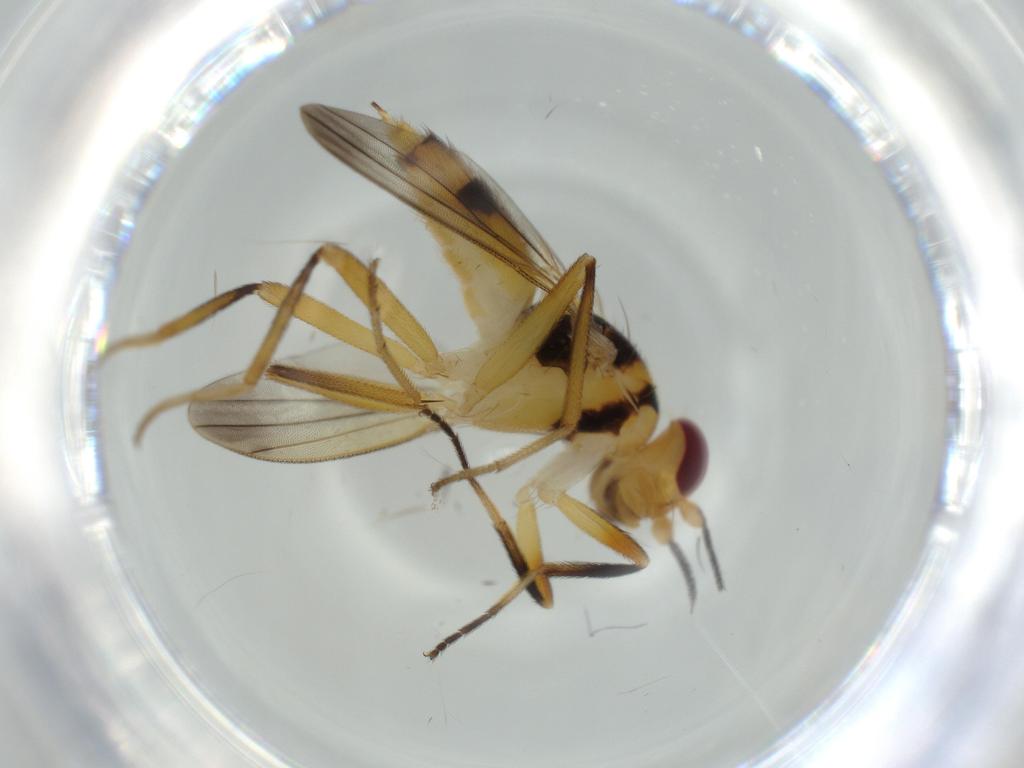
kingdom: Animalia
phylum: Arthropoda
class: Insecta
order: Diptera
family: Clusiidae
